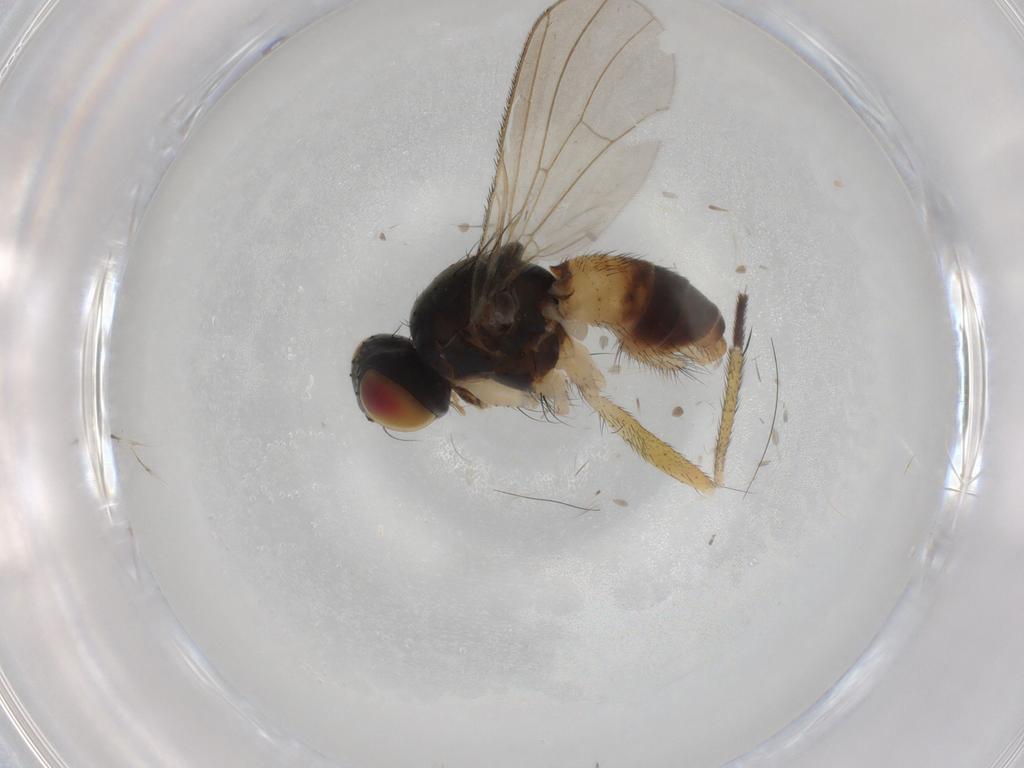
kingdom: Animalia
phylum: Arthropoda
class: Insecta
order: Diptera
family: Muscidae
